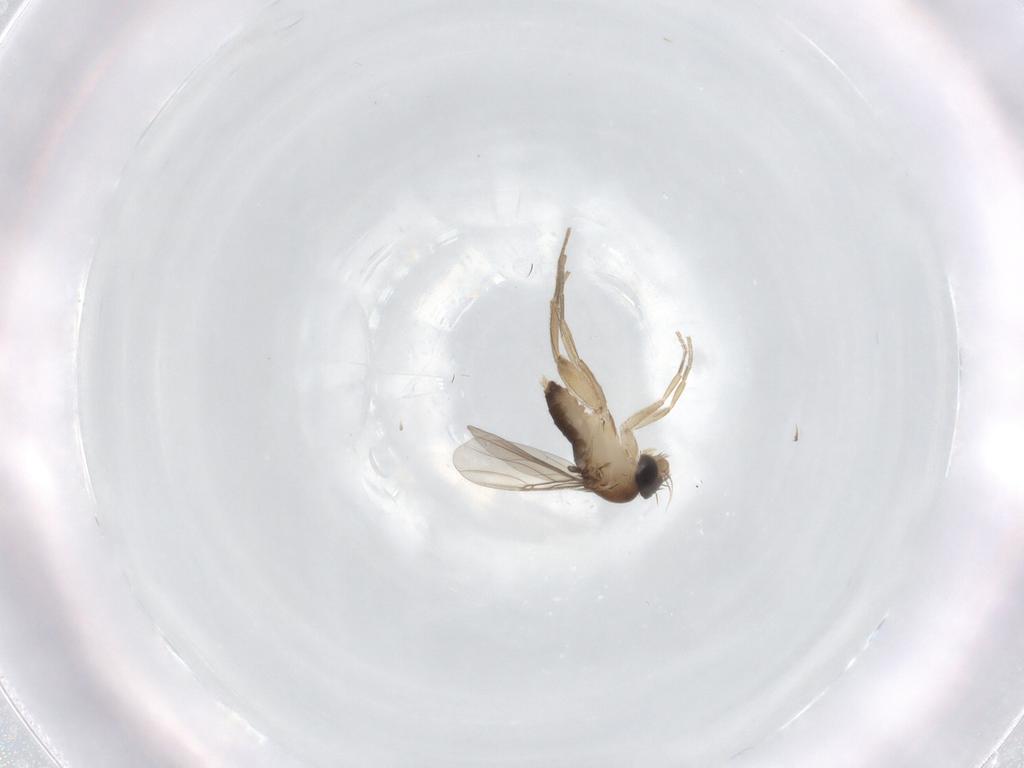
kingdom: Animalia
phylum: Arthropoda
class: Insecta
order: Diptera
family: Phoridae
